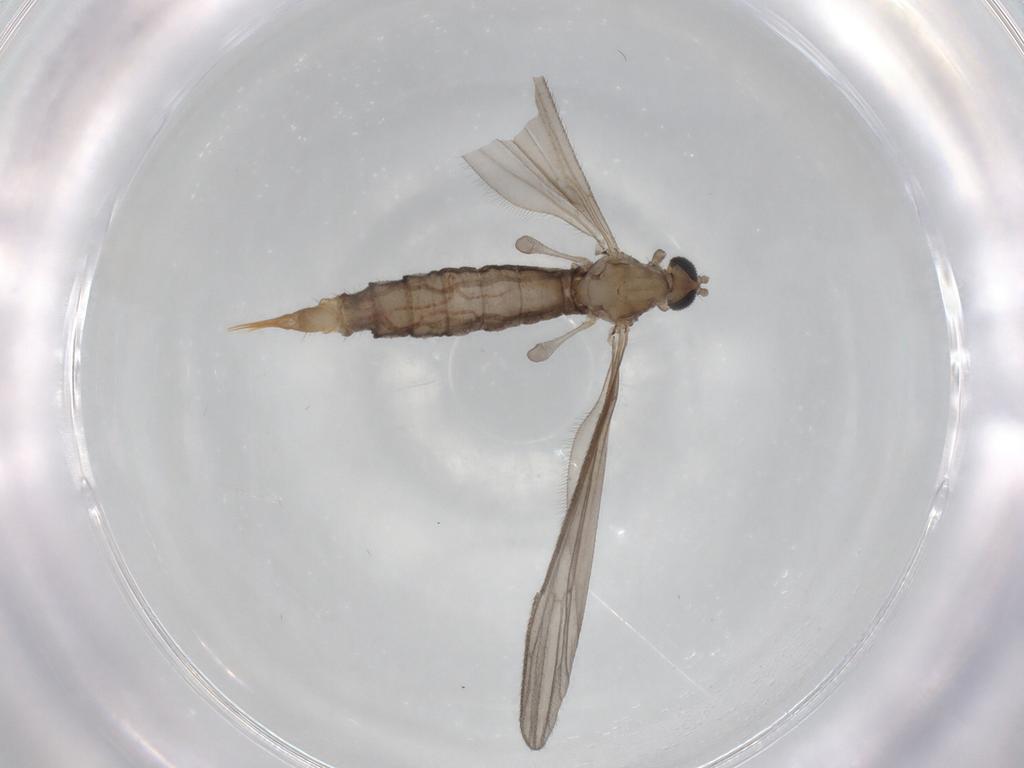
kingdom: Animalia
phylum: Arthropoda
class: Insecta
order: Diptera
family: Limoniidae
